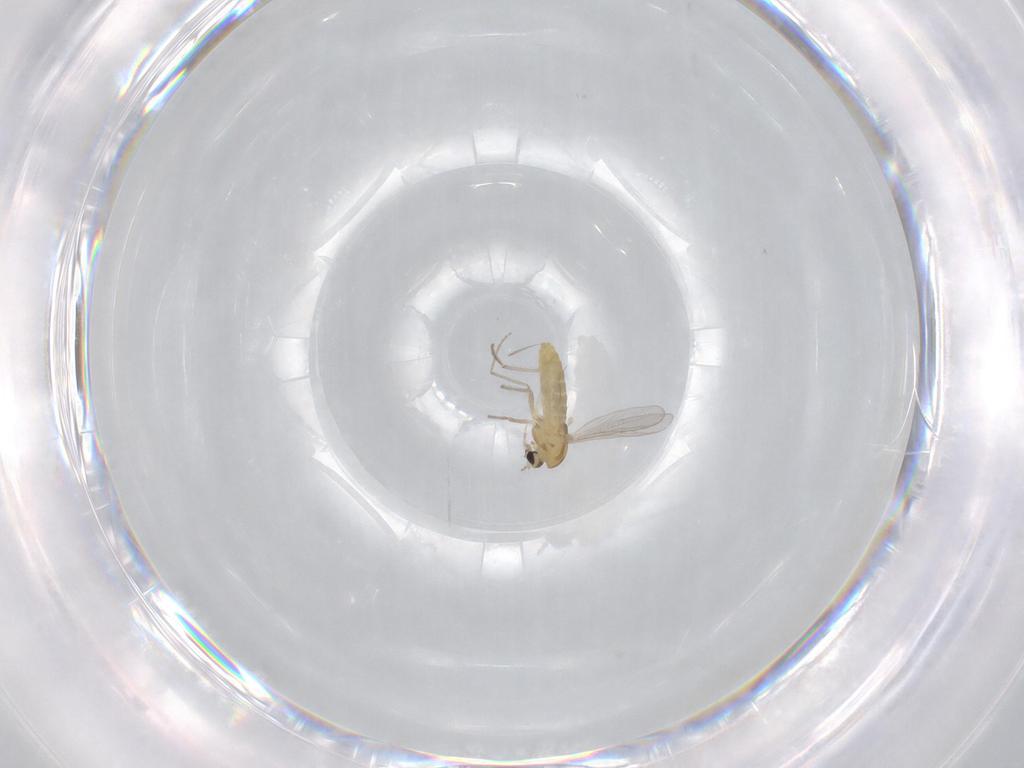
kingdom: Animalia
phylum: Arthropoda
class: Insecta
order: Diptera
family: Chironomidae
